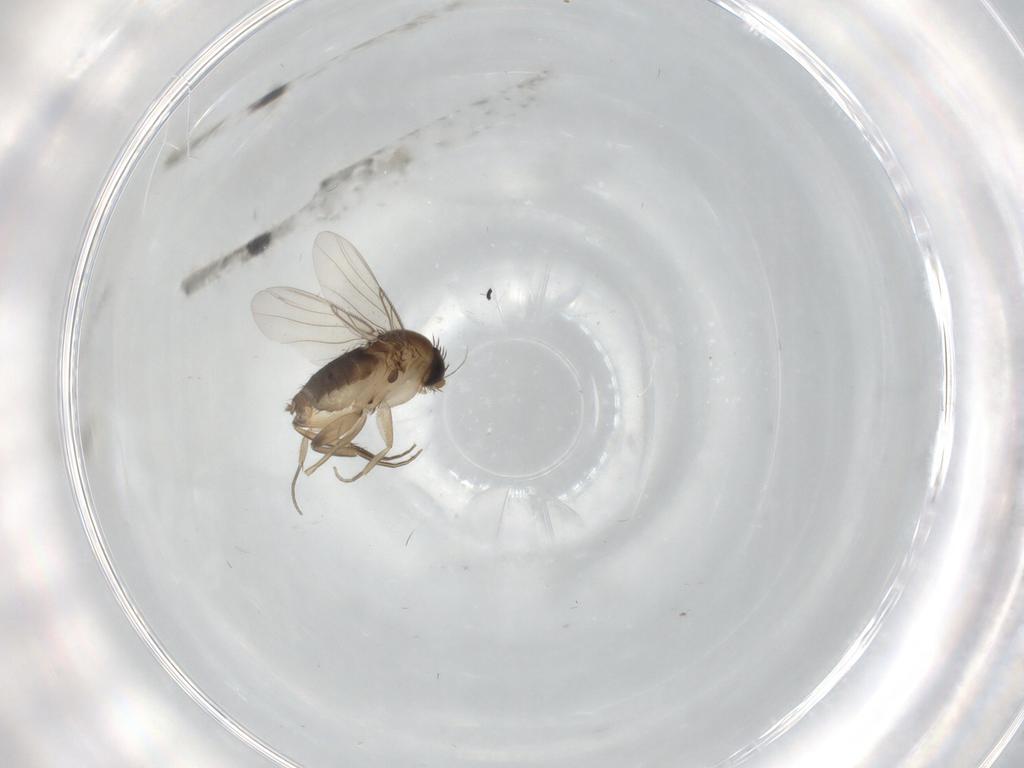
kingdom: Animalia
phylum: Arthropoda
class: Insecta
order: Diptera
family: Phoridae
